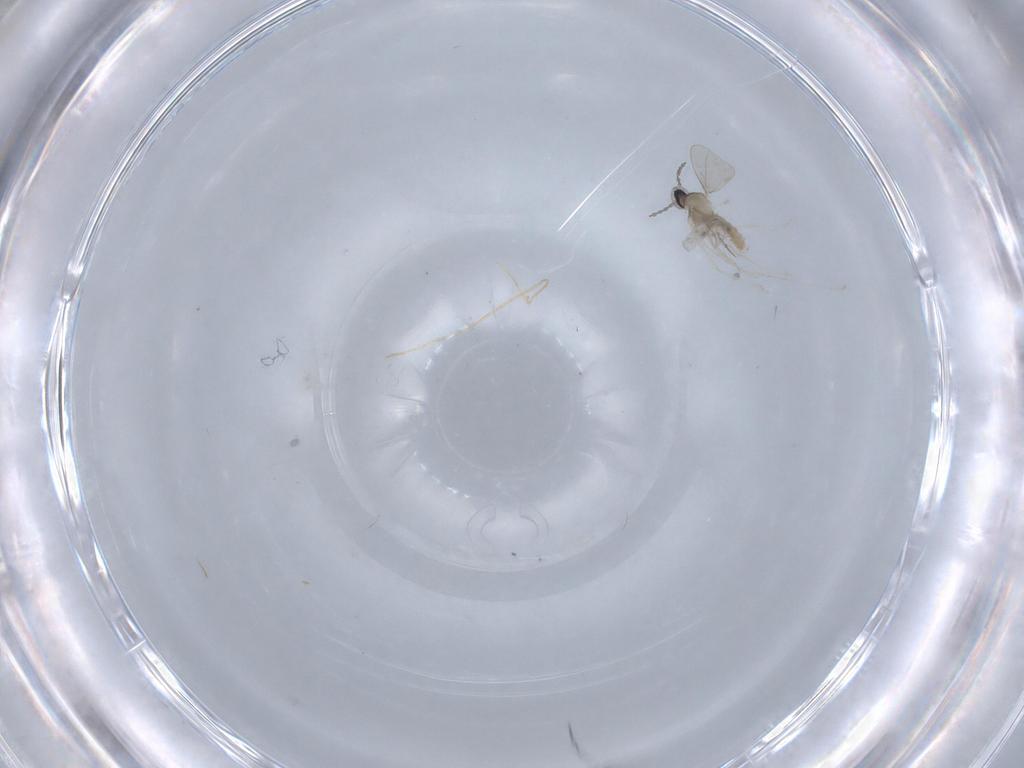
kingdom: Animalia
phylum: Arthropoda
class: Insecta
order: Diptera
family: Cecidomyiidae
